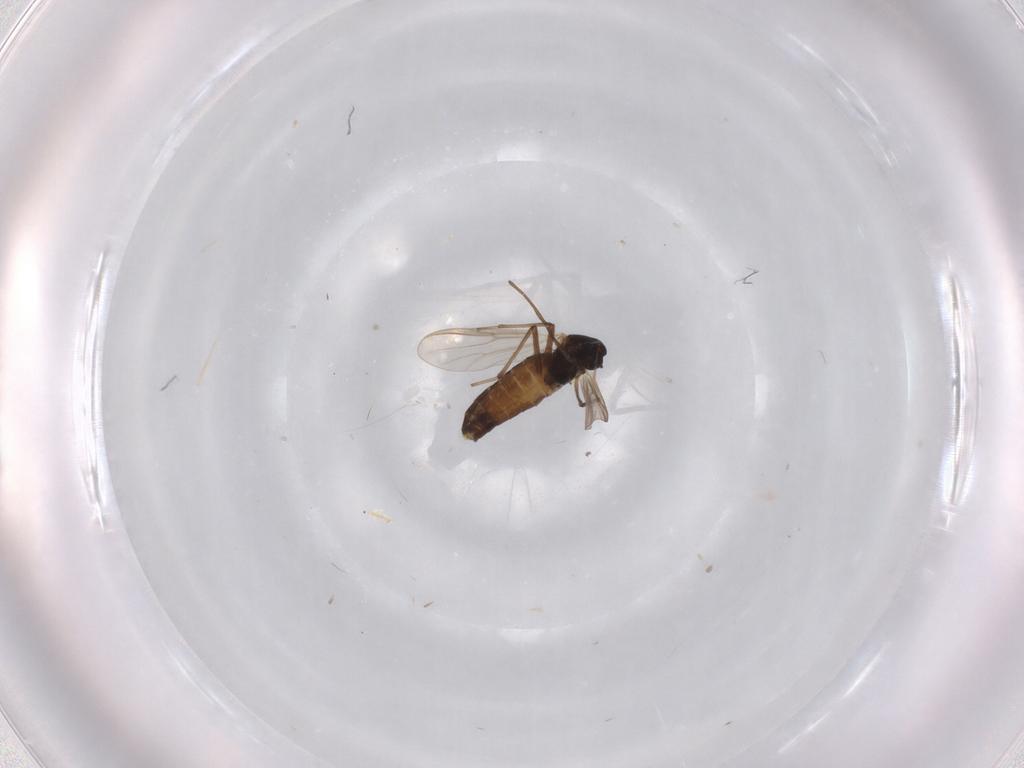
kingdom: Animalia
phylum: Arthropoda
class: Insecta
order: Diptera
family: Chironomidae
